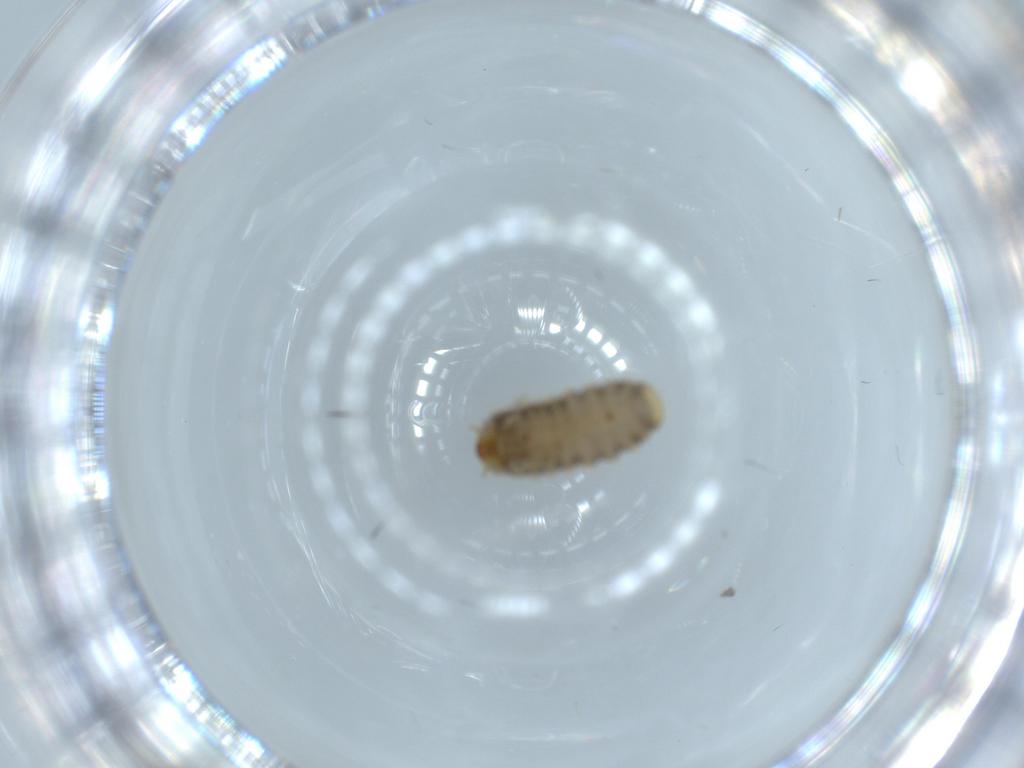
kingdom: Animalia
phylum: Arthropoda
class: Insecta
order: Coleoptera
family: Corylophidae
